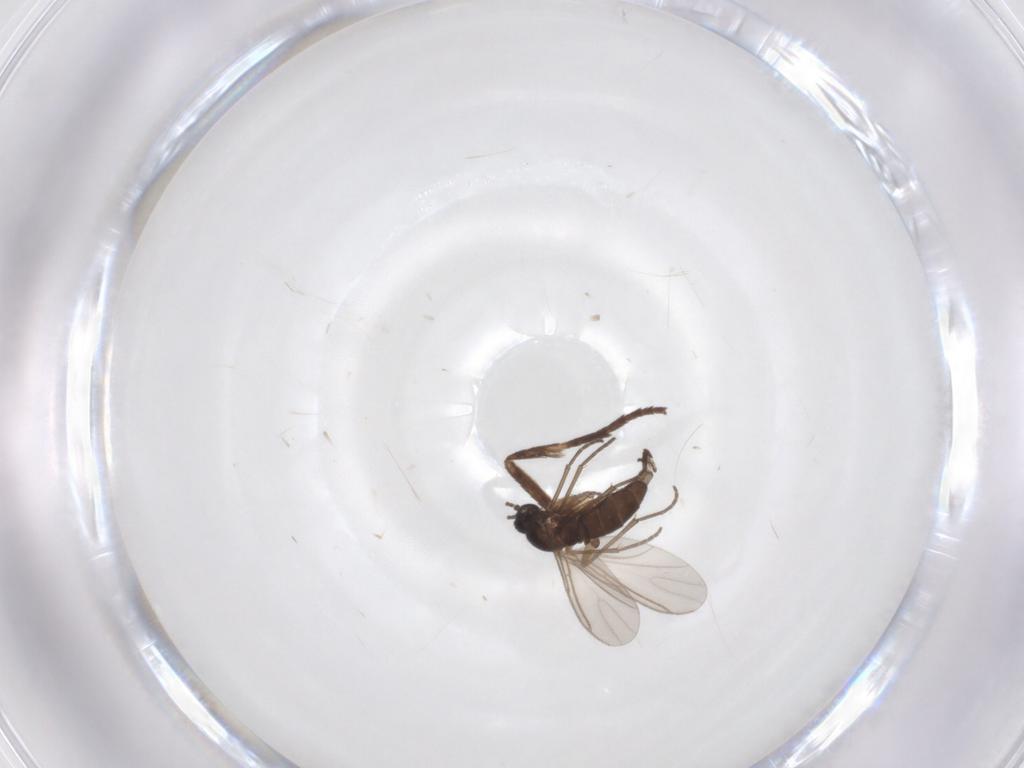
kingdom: Animalia
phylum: Arthropoda
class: Insecta
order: Diptera
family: Sciaridae
